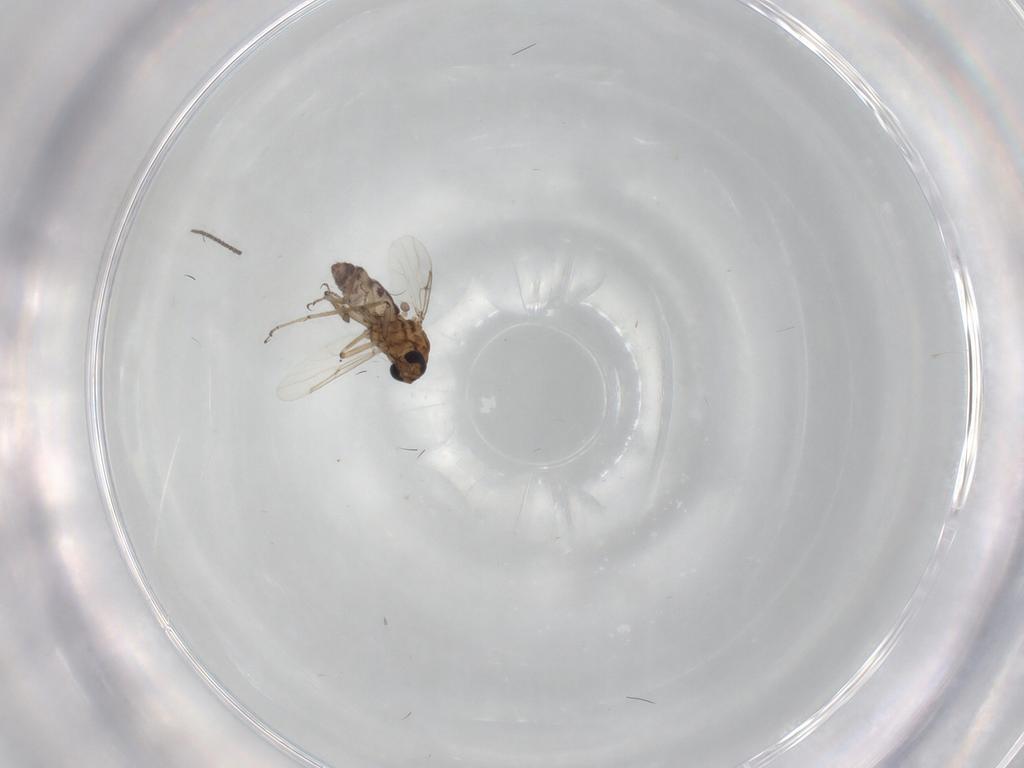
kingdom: Animalia
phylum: Arthropoda
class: Insecta
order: Diptera
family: Ceratopogonidae
